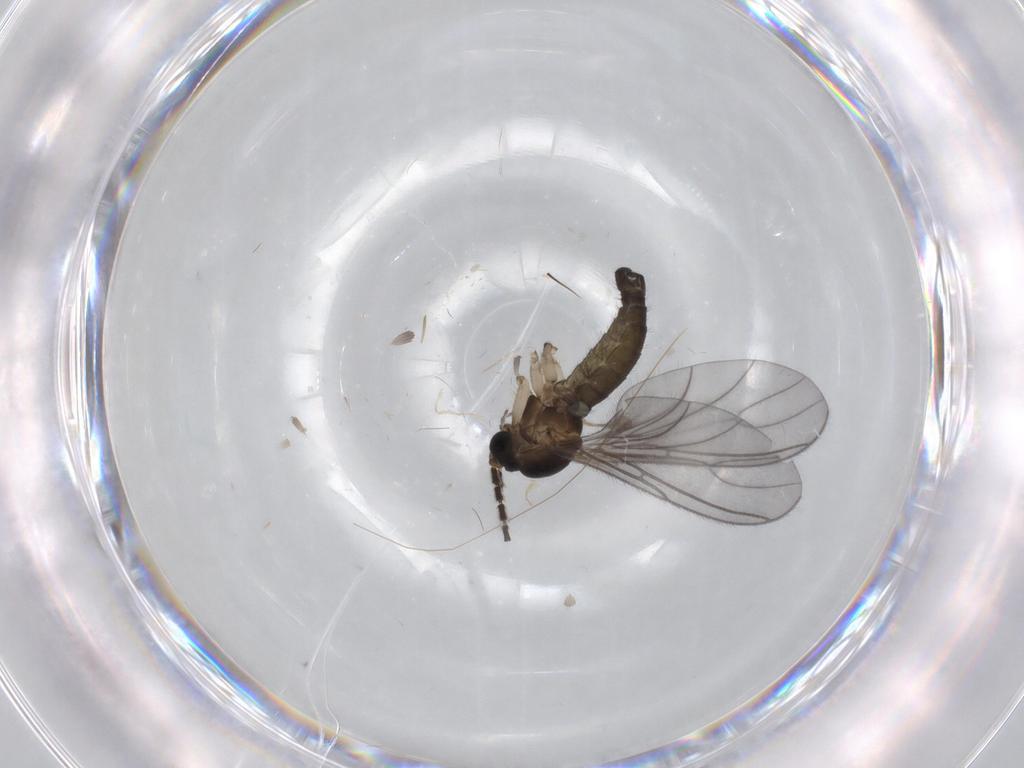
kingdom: Animalia
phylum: Arthropoda
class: Insecta
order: Diptera
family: Sciaridae
